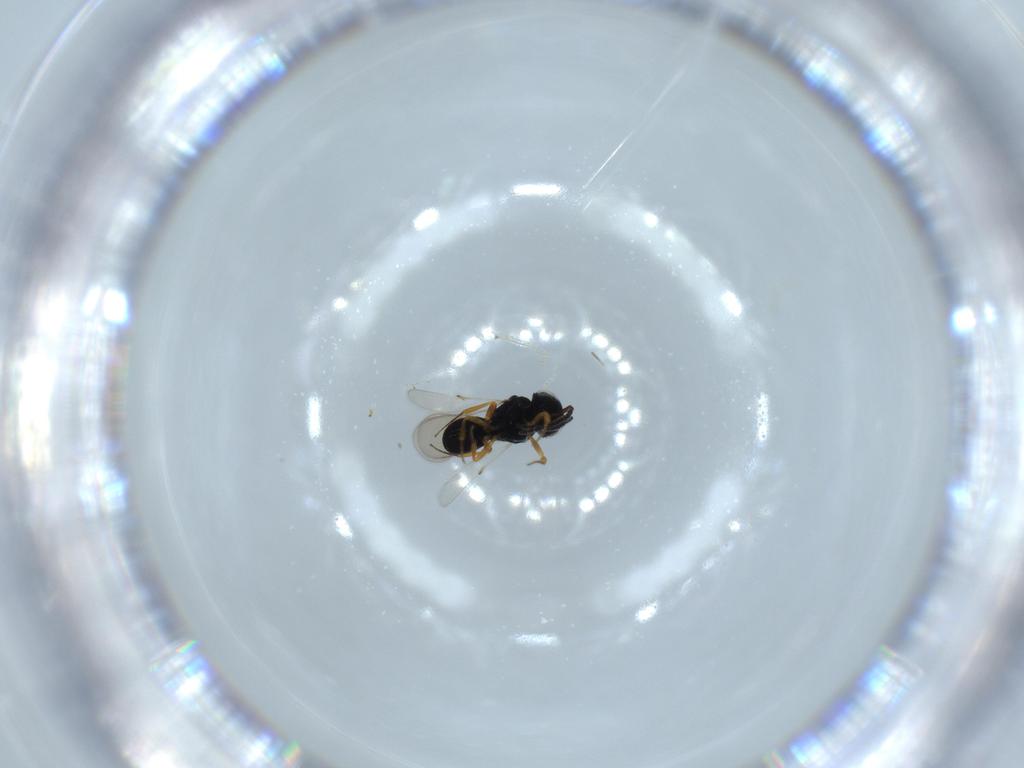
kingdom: Animalia
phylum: Arthropoda
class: Insecta
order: Hymenoptera
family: Scelionidae
